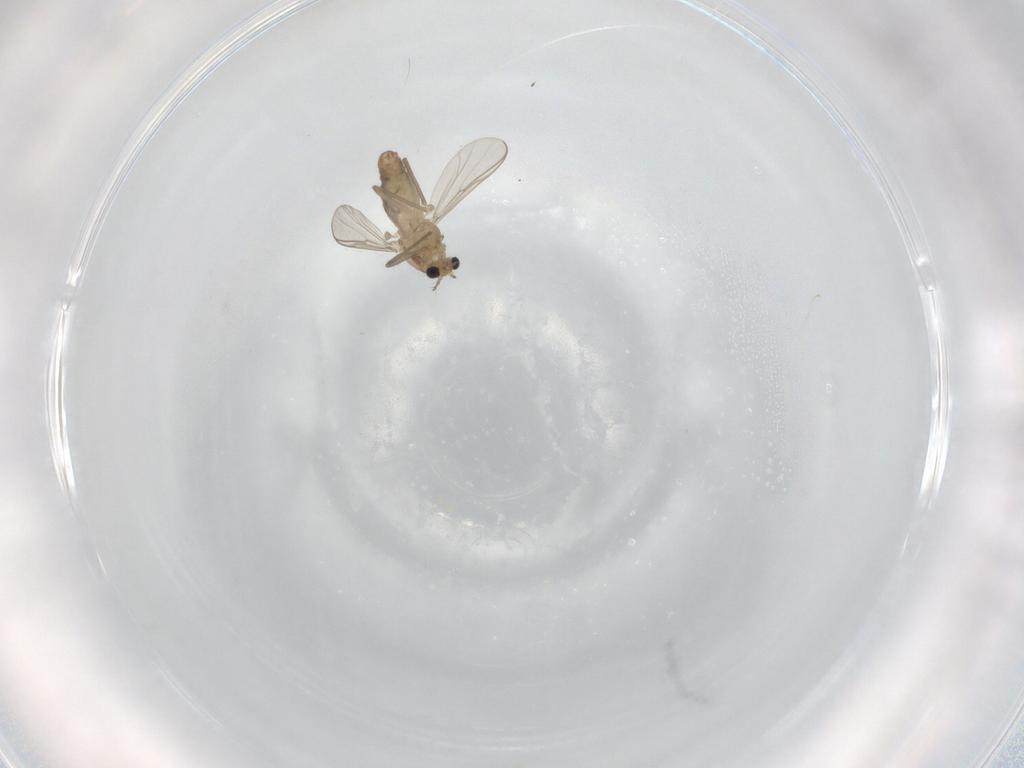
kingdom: Animalia
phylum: Arthropoda
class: Insecta
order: Diptera
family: Chironomidae
